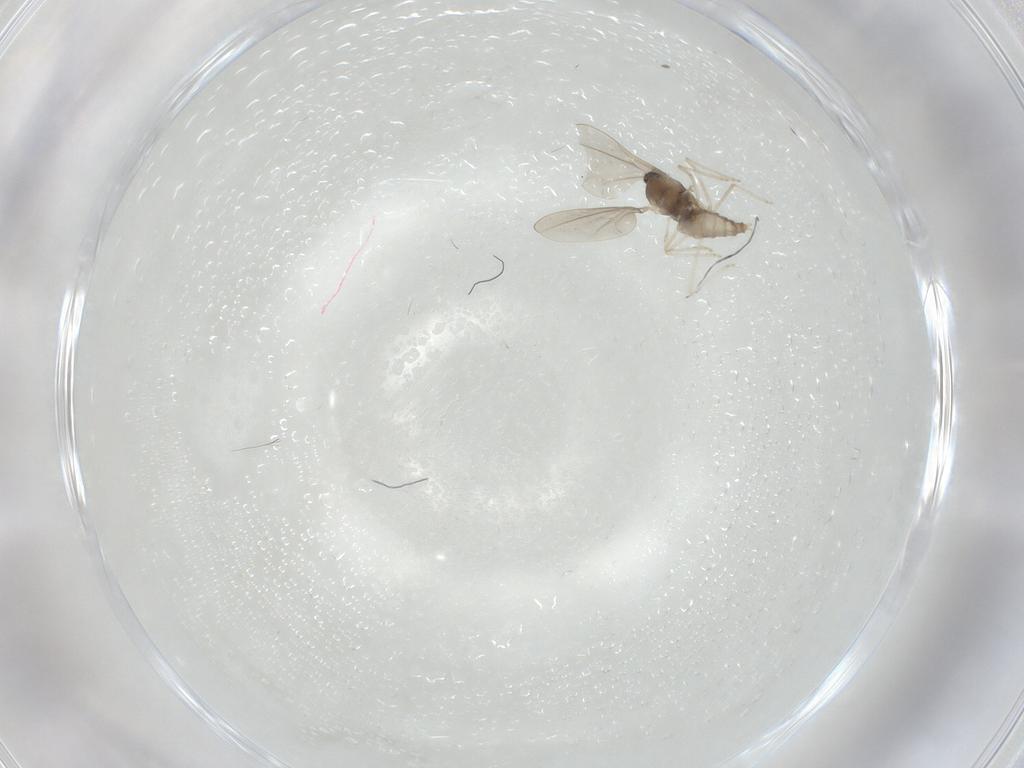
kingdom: Animalia
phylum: Arthropoda
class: Insecta
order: Diptera
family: Cecidomyiidae
